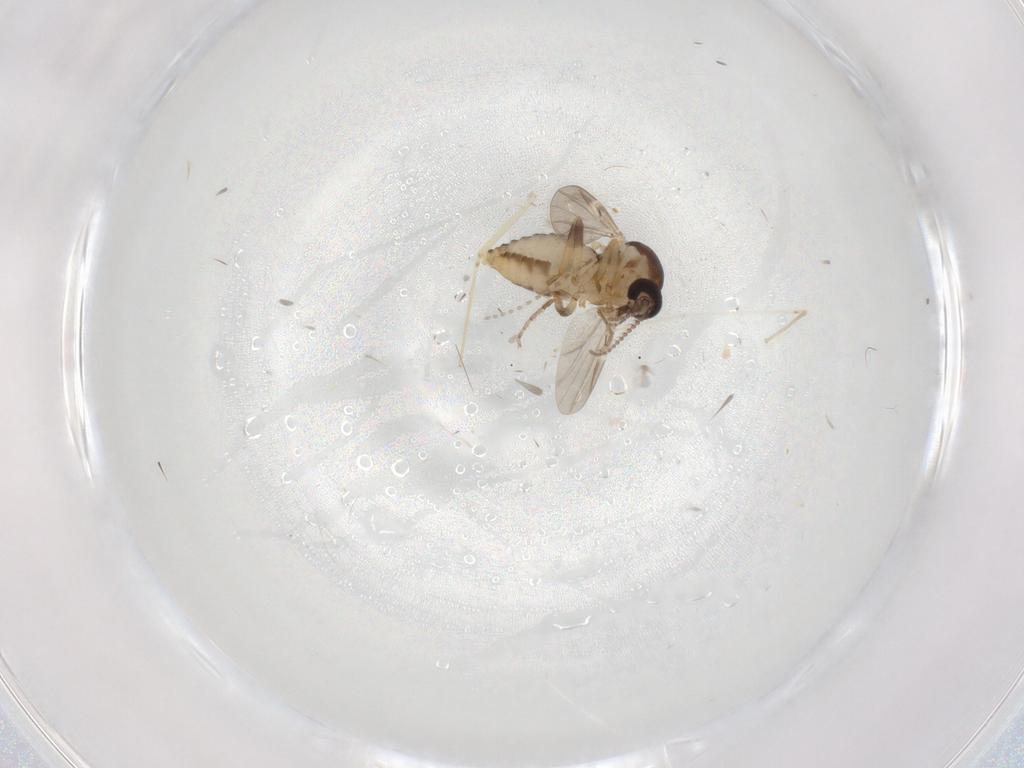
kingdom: Animalia
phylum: Arthropoda
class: Insecta
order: Diptera
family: Ceratopogonidae
